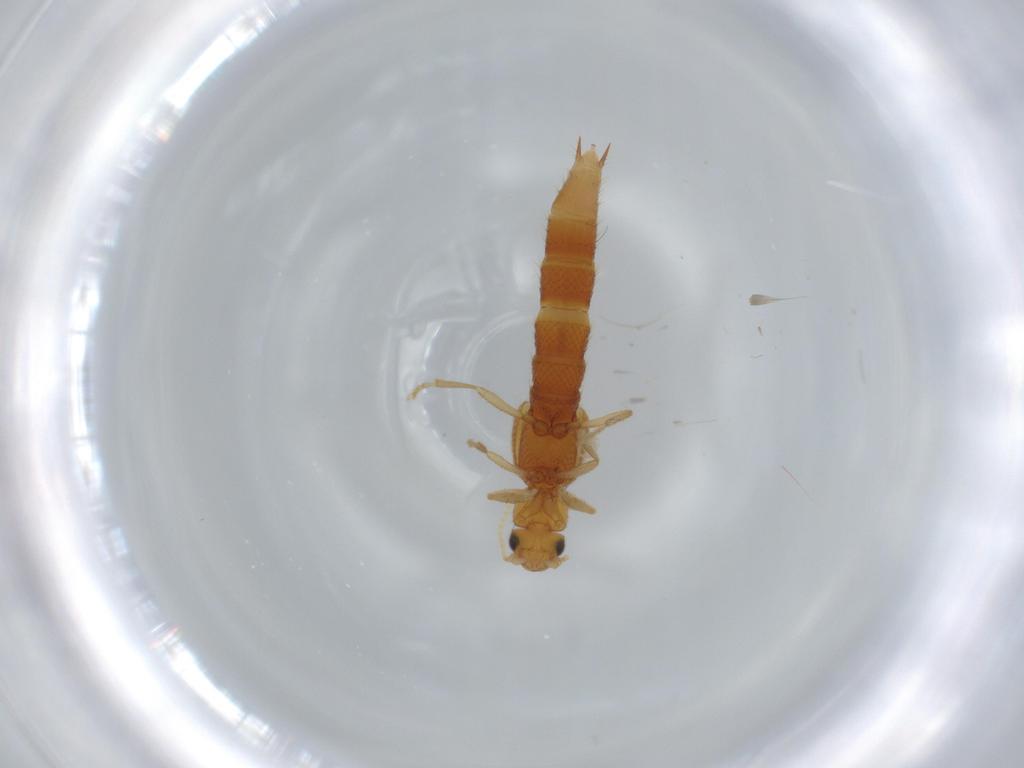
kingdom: Animalia
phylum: Arthropoda
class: Insecta
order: Coleoptera
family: Staphylinidae
